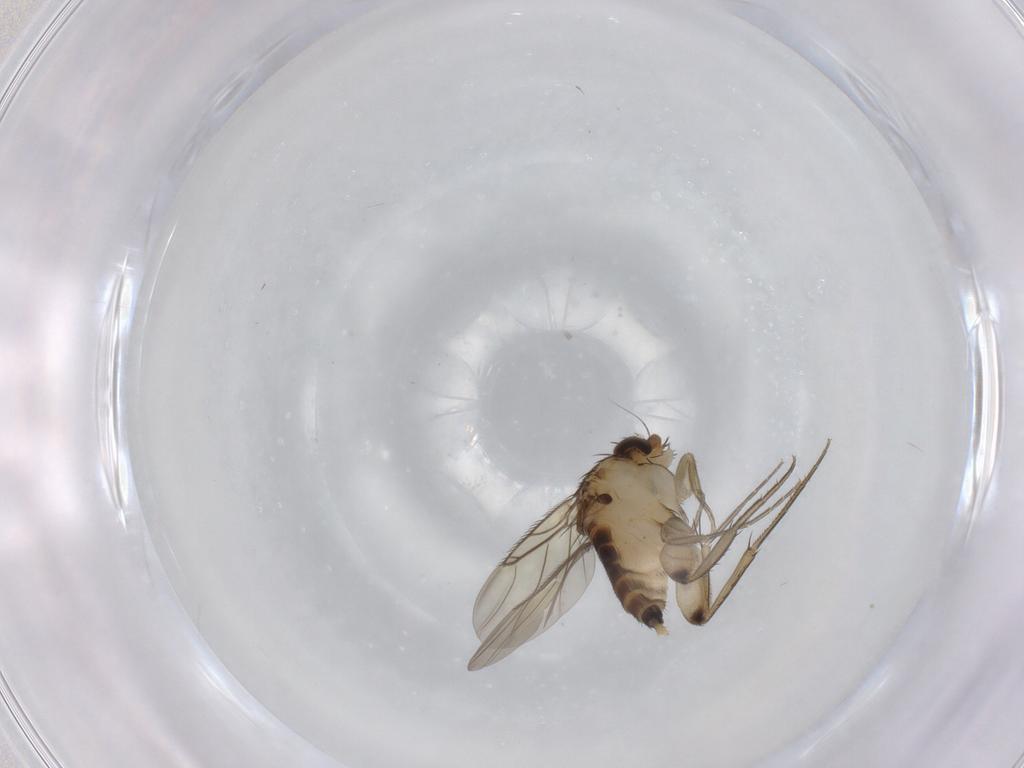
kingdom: Animalia
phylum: Arthropoda
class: Insecta
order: Diptera
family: Phoridae
